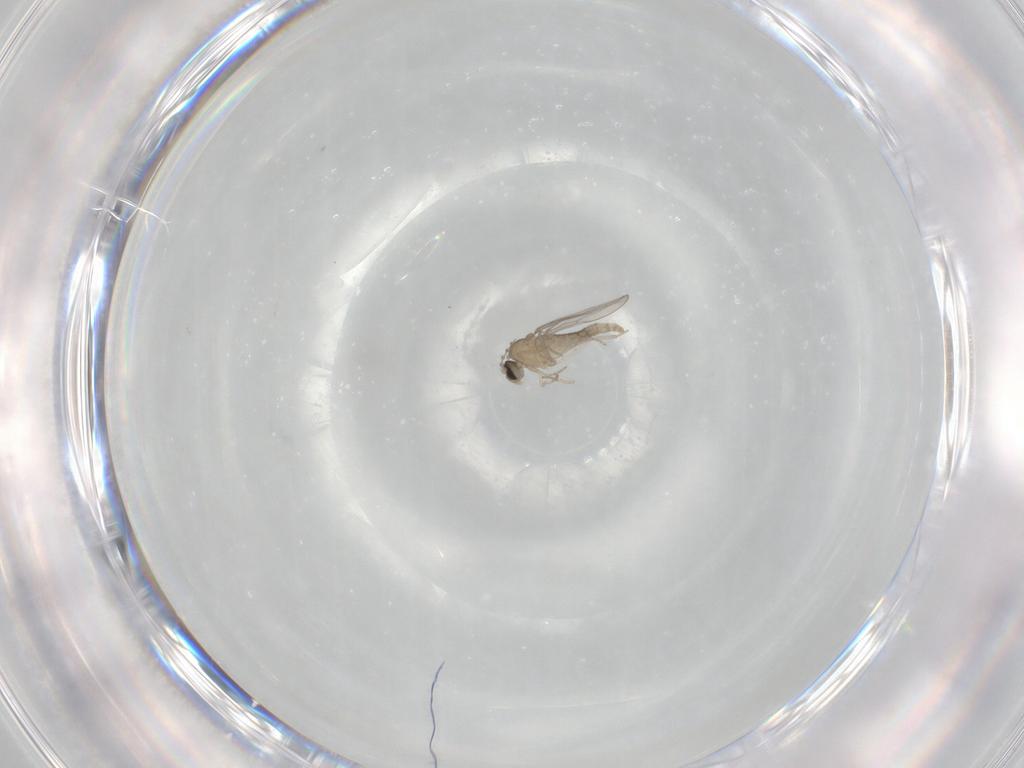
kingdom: Animalia
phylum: Arthropoda
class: Insecta
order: Diptera
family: Cecidomyiidae
